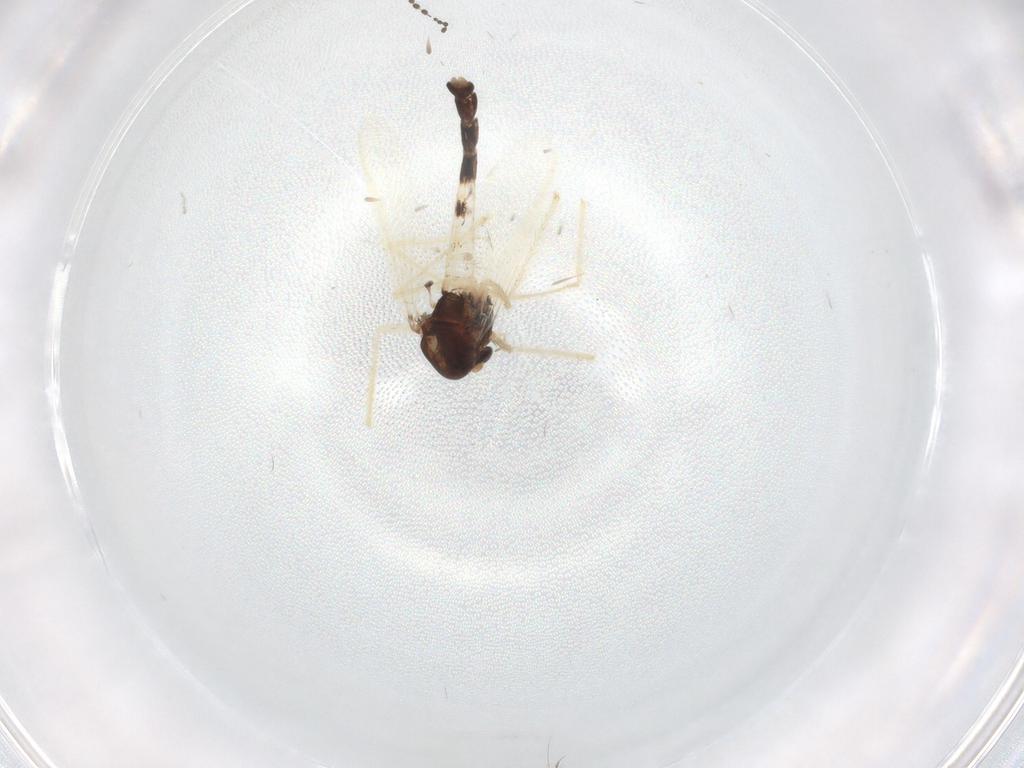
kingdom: Animalia
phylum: Arthropoda
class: Insecta
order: Diptera
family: Chironomidae
